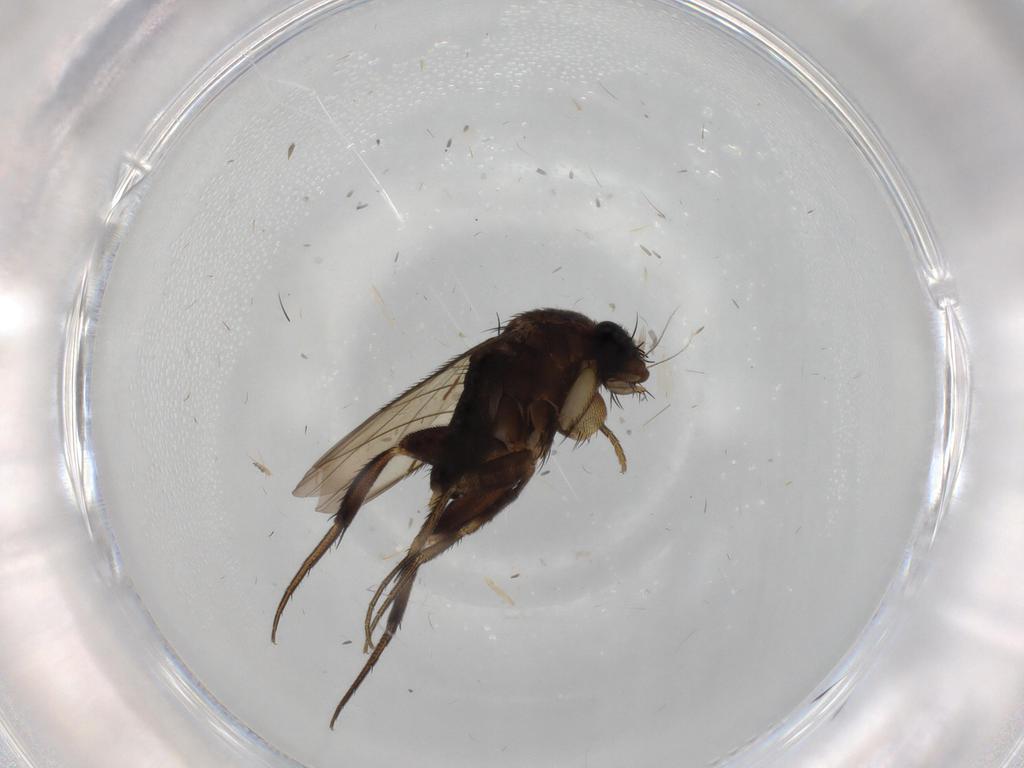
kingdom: Animalia
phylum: Arthropoda
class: Insecta
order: Diptera
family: Phoridae
